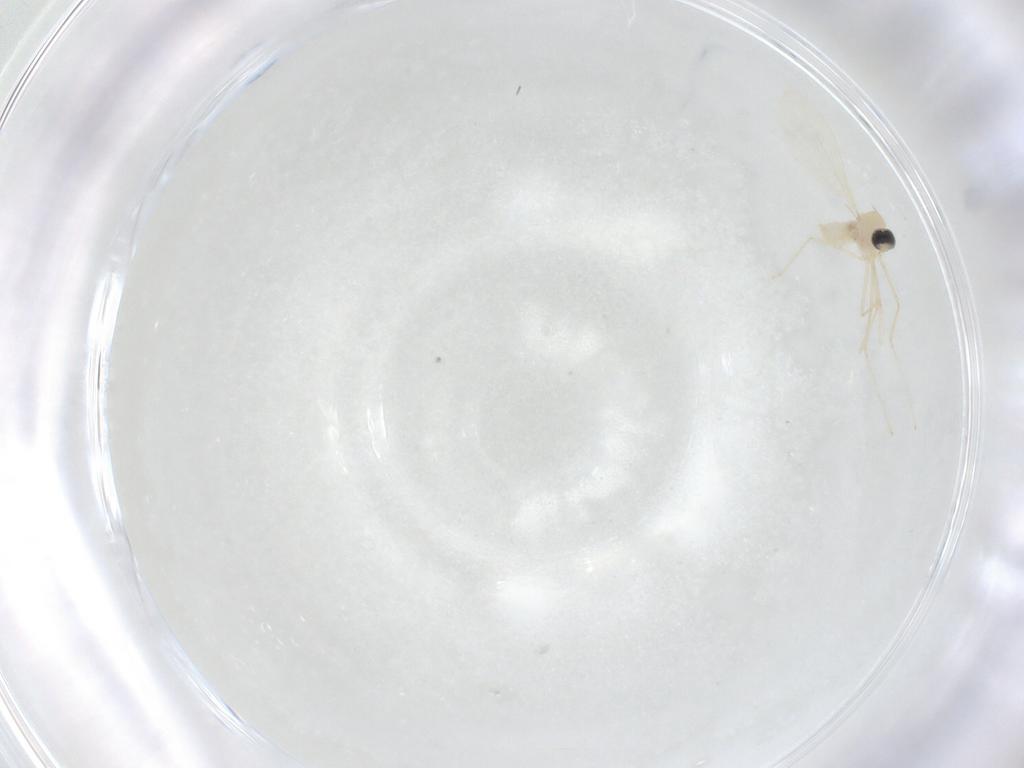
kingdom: Animalia
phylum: Arthropoda
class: Insecta
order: Diptera
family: Cecidomyiidae
